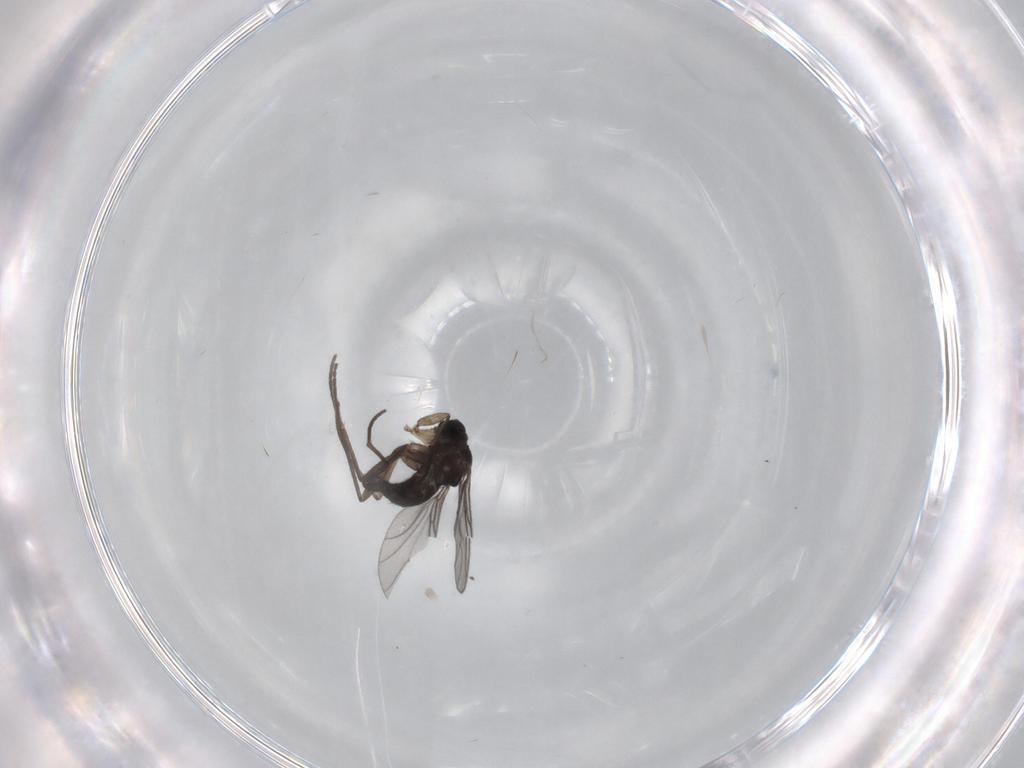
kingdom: Animalia
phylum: Arthropoda
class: Insecta
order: Diptera
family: Sciaridae
